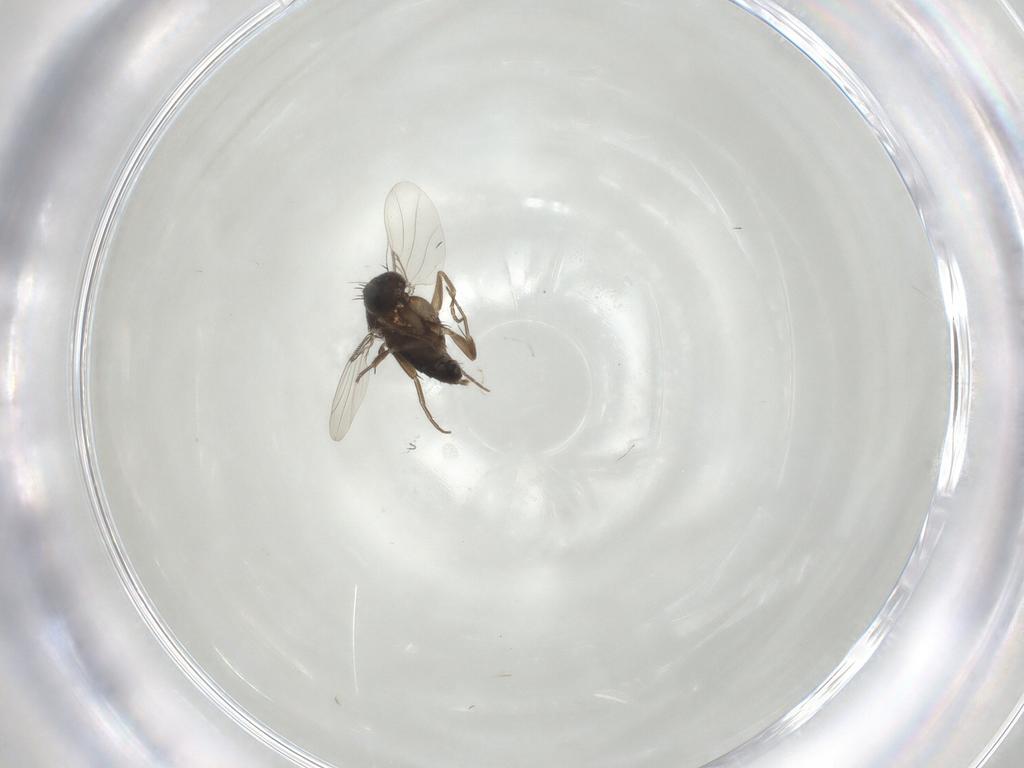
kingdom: Animalia
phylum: Arthropoda
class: Insecta
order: Diptera
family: Phoridae
